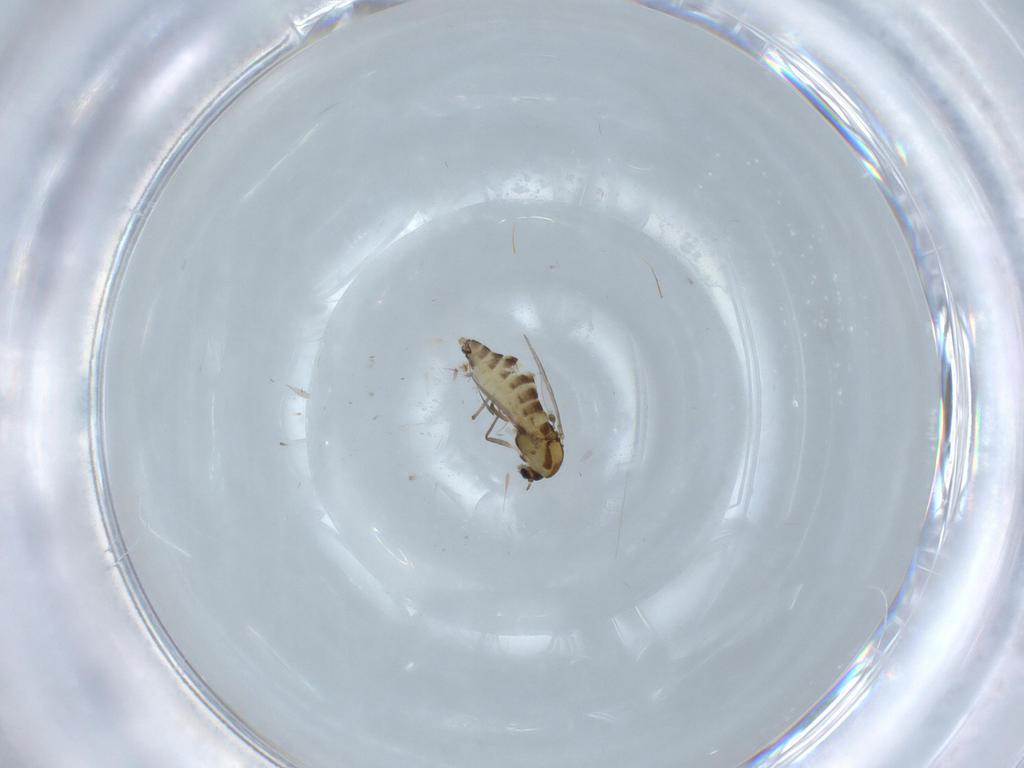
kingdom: Animalia
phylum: Arthropoda
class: Insecta
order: Diptera
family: Chironomidae
